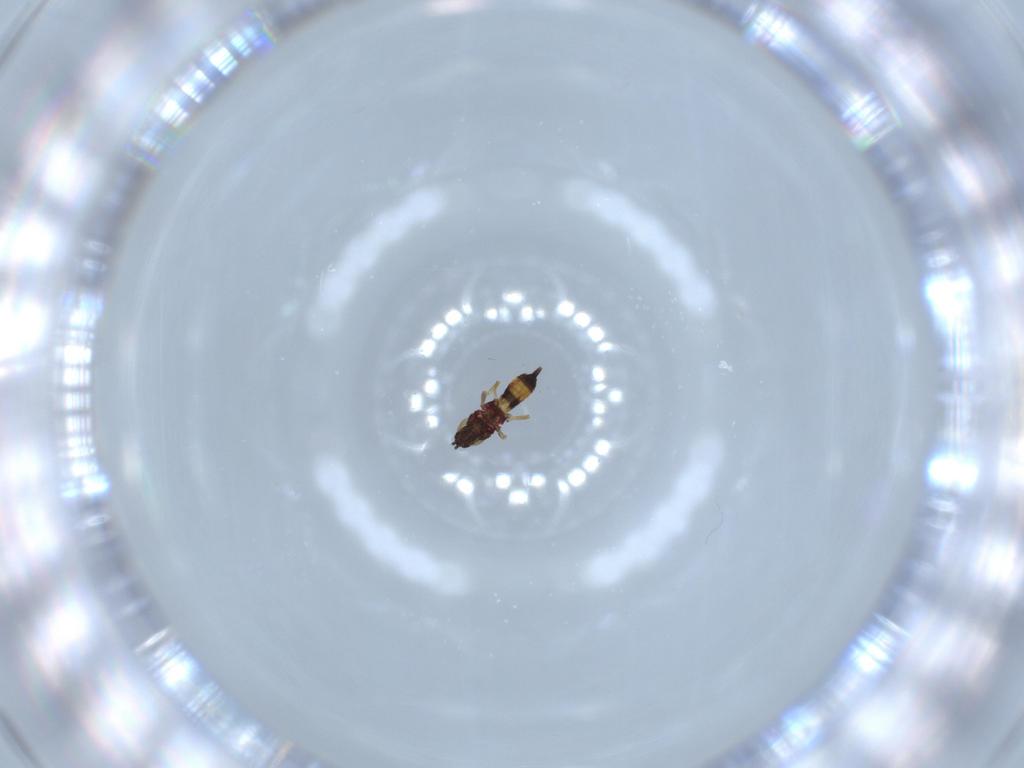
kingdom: Animalia
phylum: Arthropoda
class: Insecta
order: Thysanoptera
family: Phlaeothripidae
